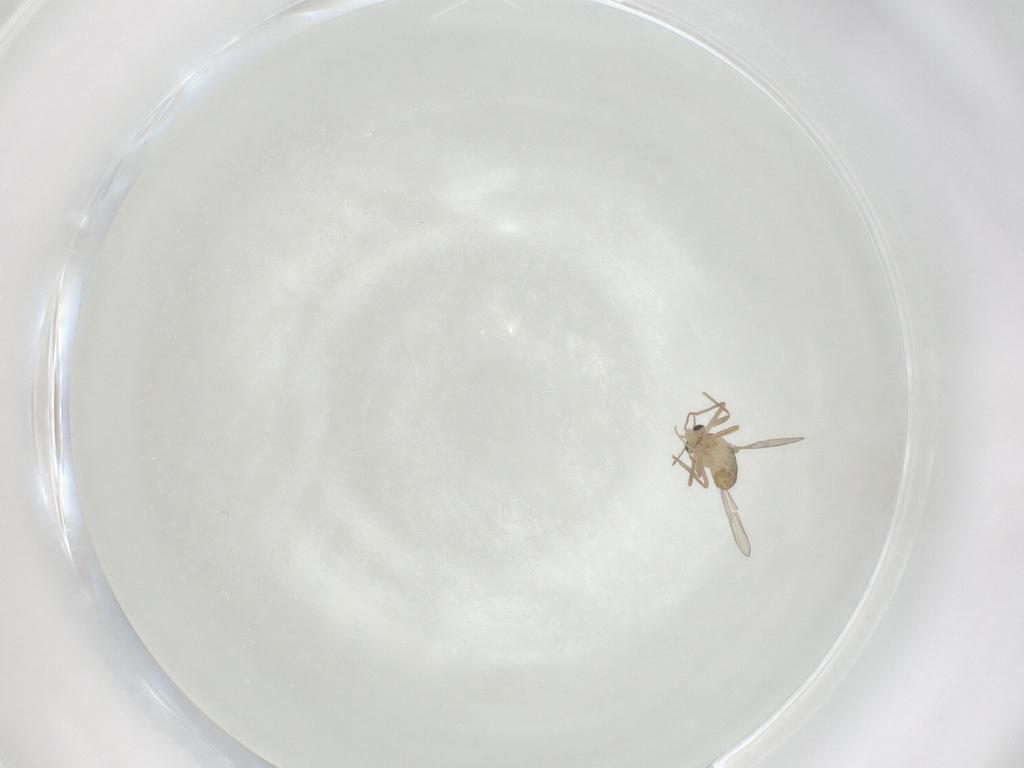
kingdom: Animalia
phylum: Arthropoda
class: Insecta
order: Diptera
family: Chironomidae
